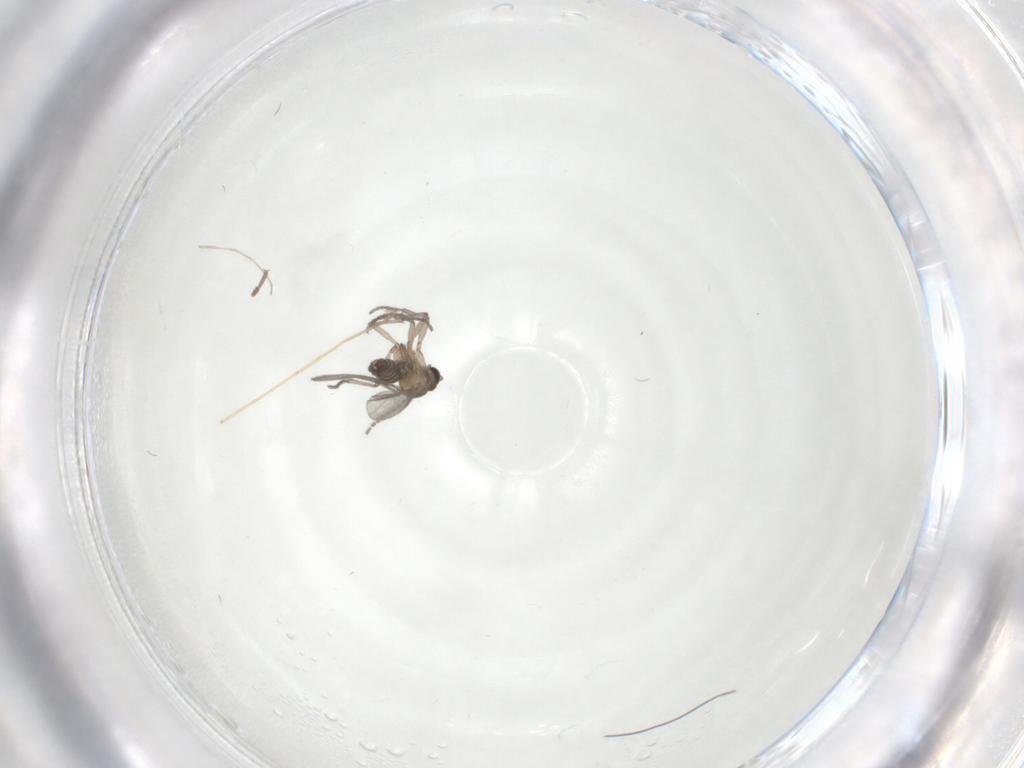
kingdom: Animalia
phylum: Arthropoda
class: Insecta
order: Diptera
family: Chironomidae
